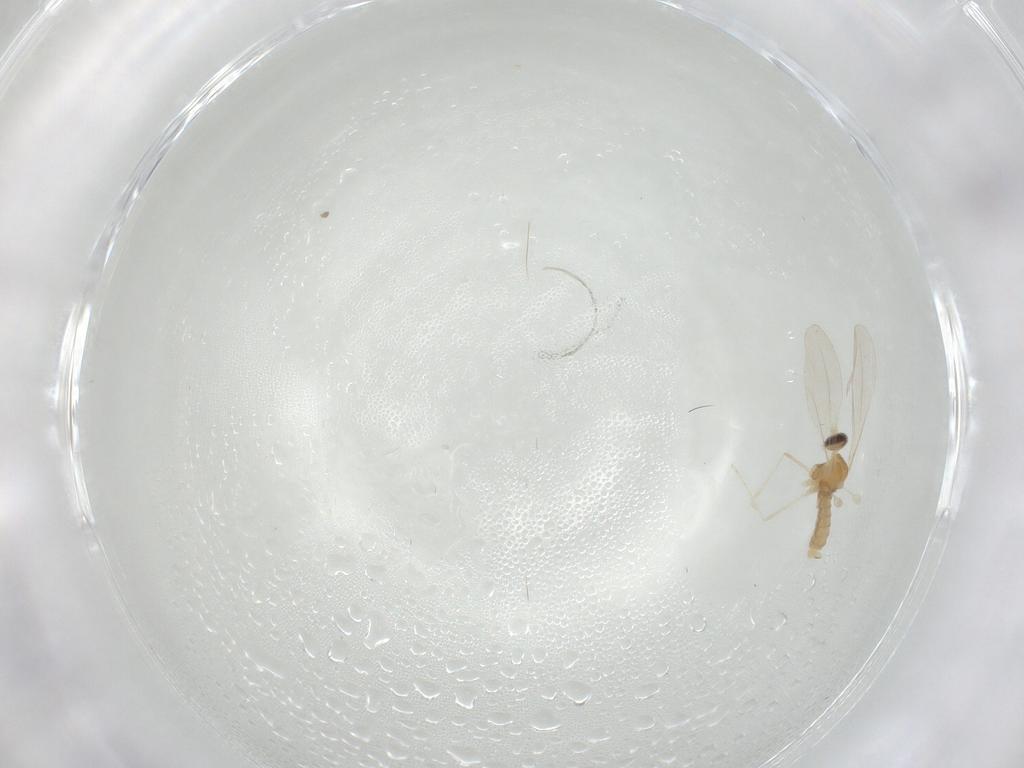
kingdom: Animalia
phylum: Arthropoda
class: Insecta
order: Diptera
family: Cecidomyiidae
